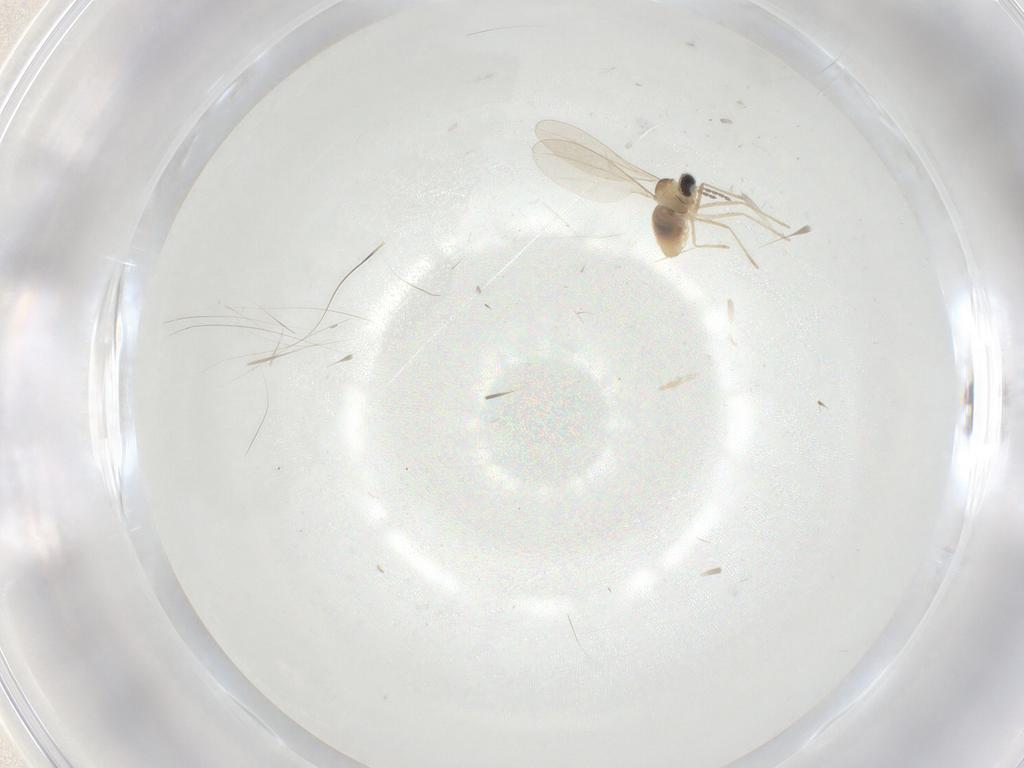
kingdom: Animalia
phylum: Arthropoda
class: Insecta
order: Diptera
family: Cecidomyiidae
